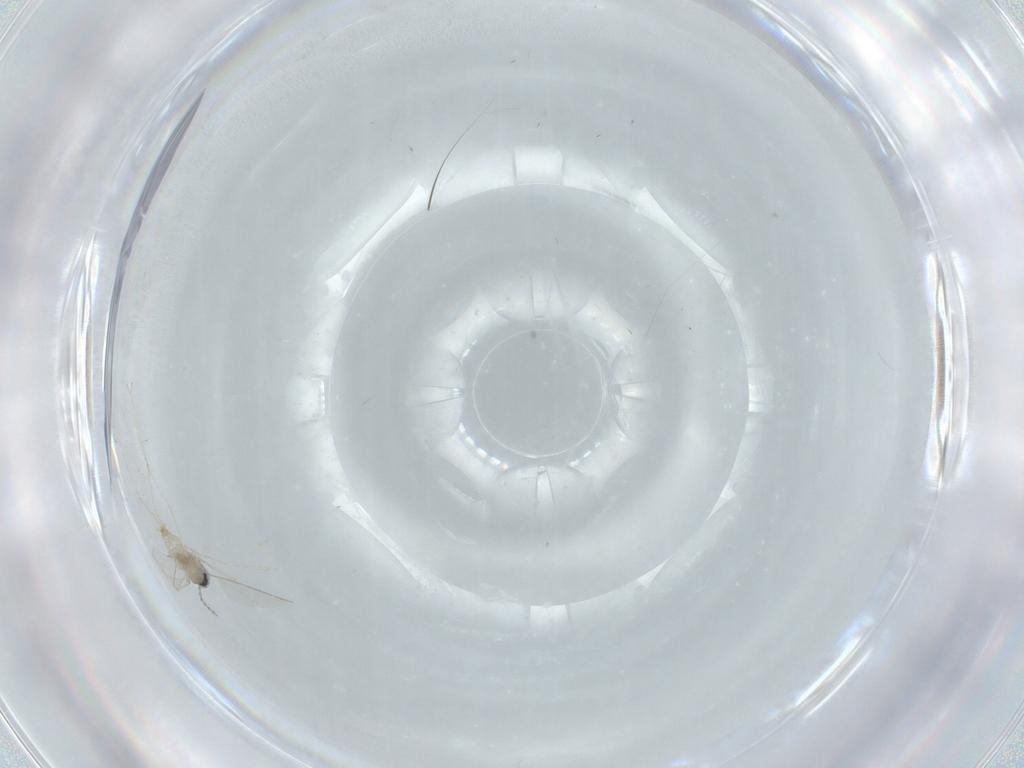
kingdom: Animalia
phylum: Arthropoda
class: Insecta
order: Diptera
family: Cecidomyiidae
